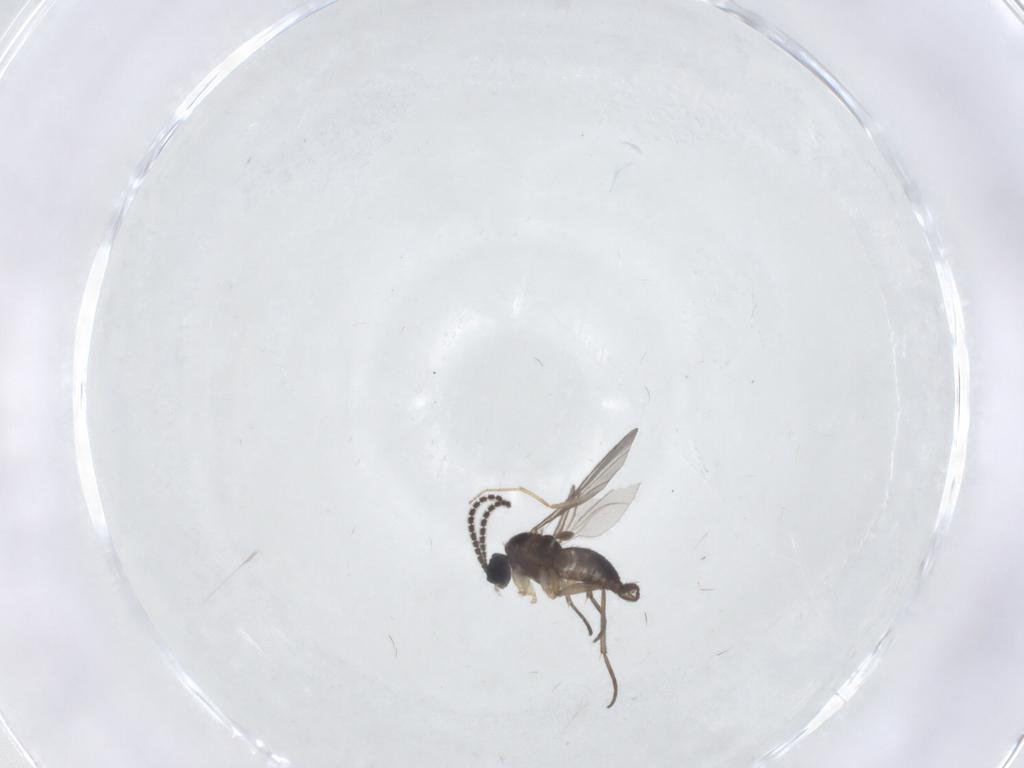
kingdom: Animalia
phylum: Arthropoda
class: Insecta
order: Diptera
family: Sciaridae
